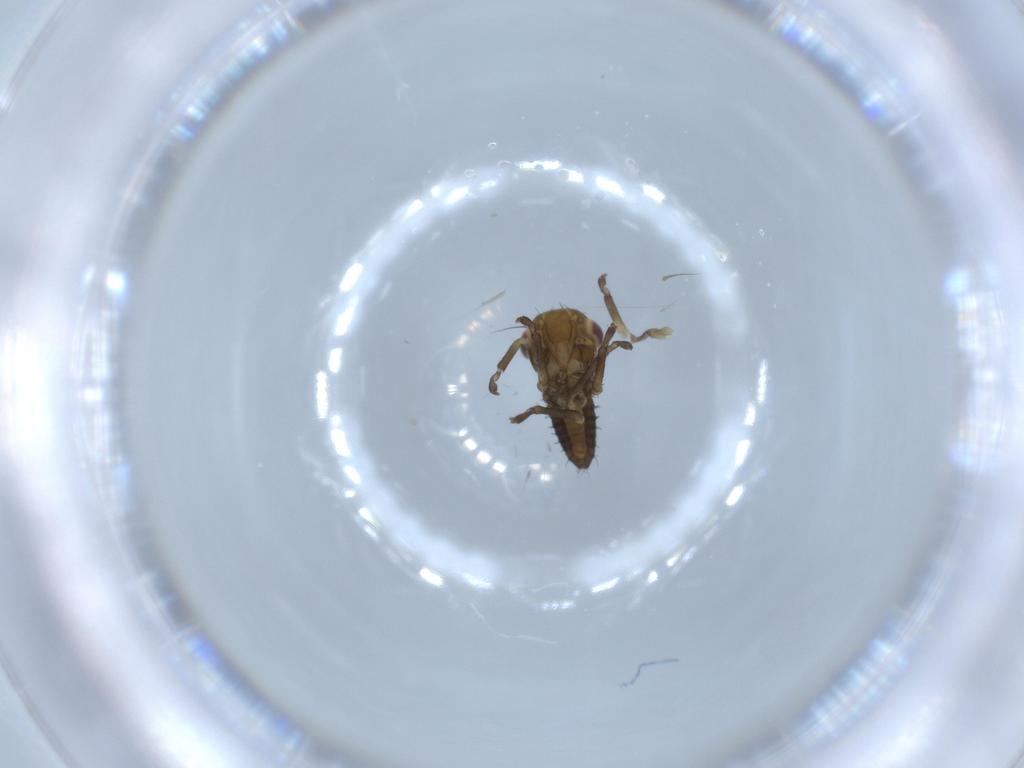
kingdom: Animalia
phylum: Arthropoda
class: Insecta
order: Hemiptera
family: Cicadellidae
